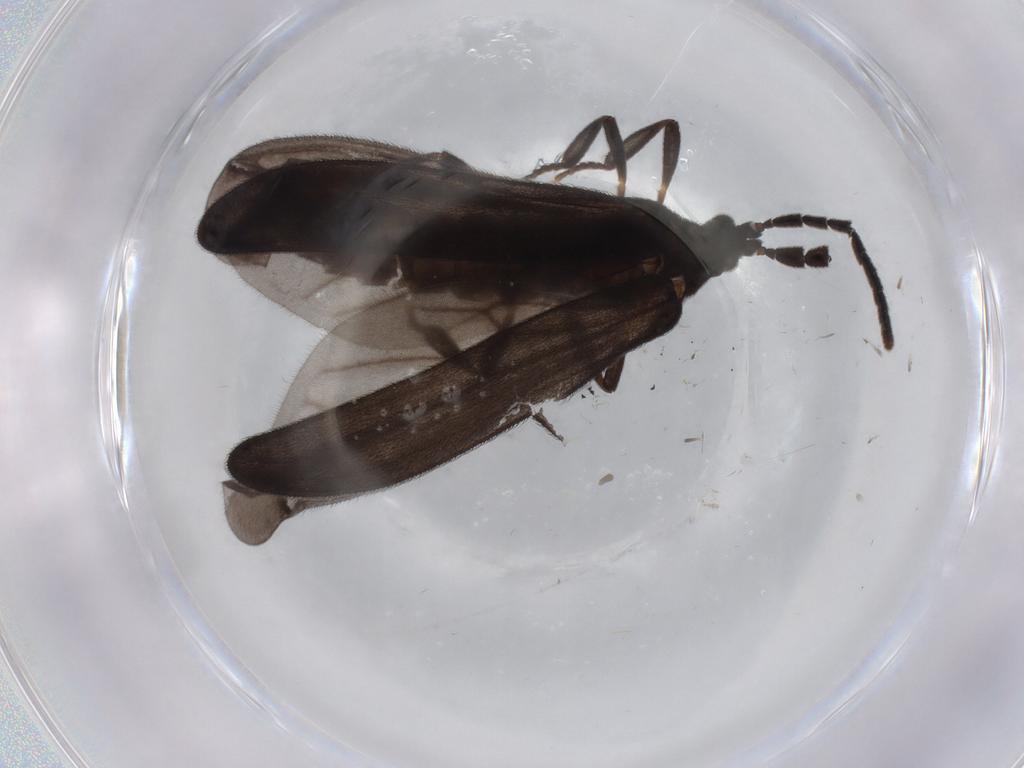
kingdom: Animalia
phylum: Arthropoda
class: Insecta
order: Coleoptera
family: Lycidae
